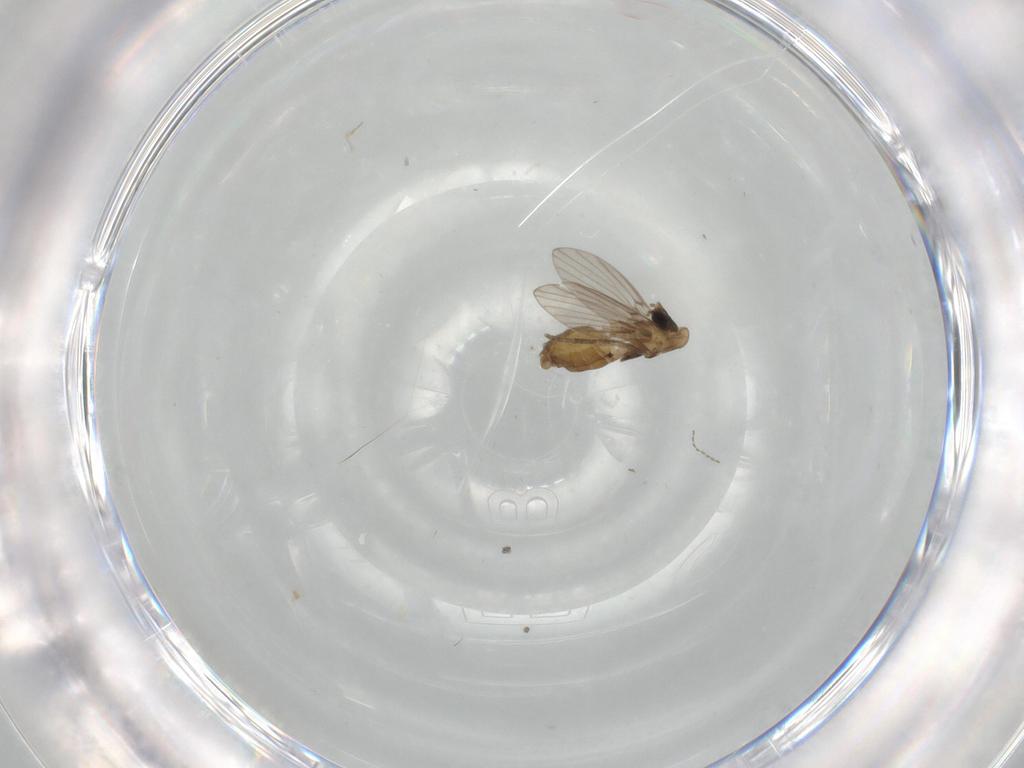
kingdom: Animalia
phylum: Arthropoda
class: Insecta
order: Diptera
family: Psychodidae
